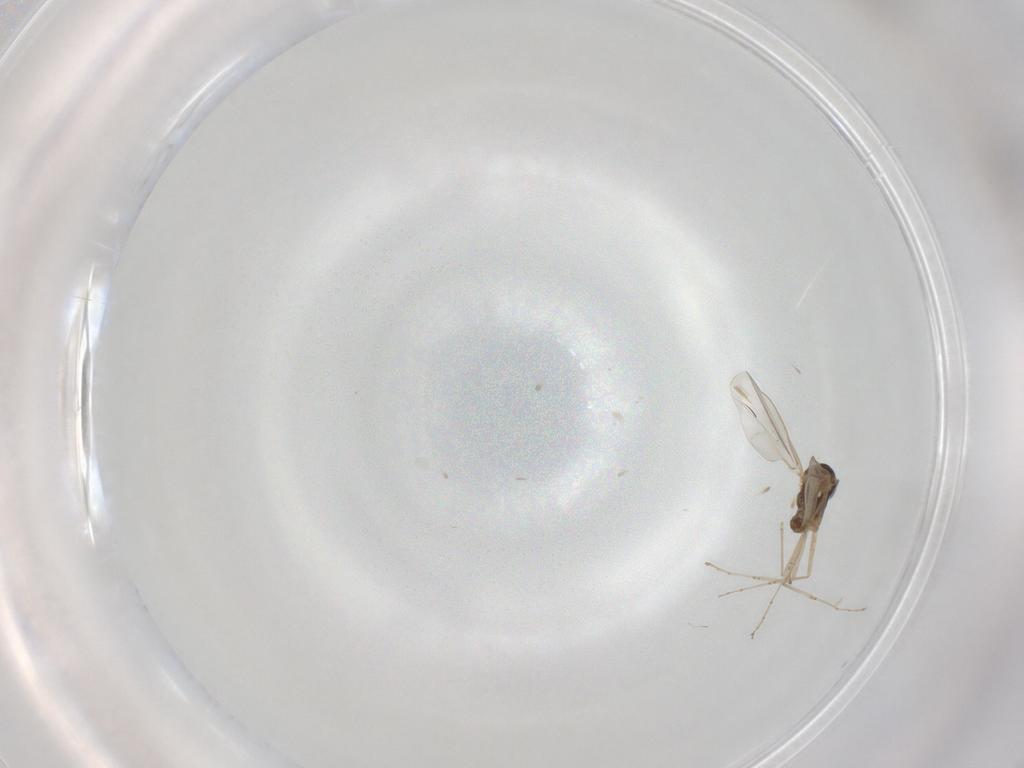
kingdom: Animalia
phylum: Arthropoda
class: Insecta
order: Diptera
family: Cecidomyiidae
